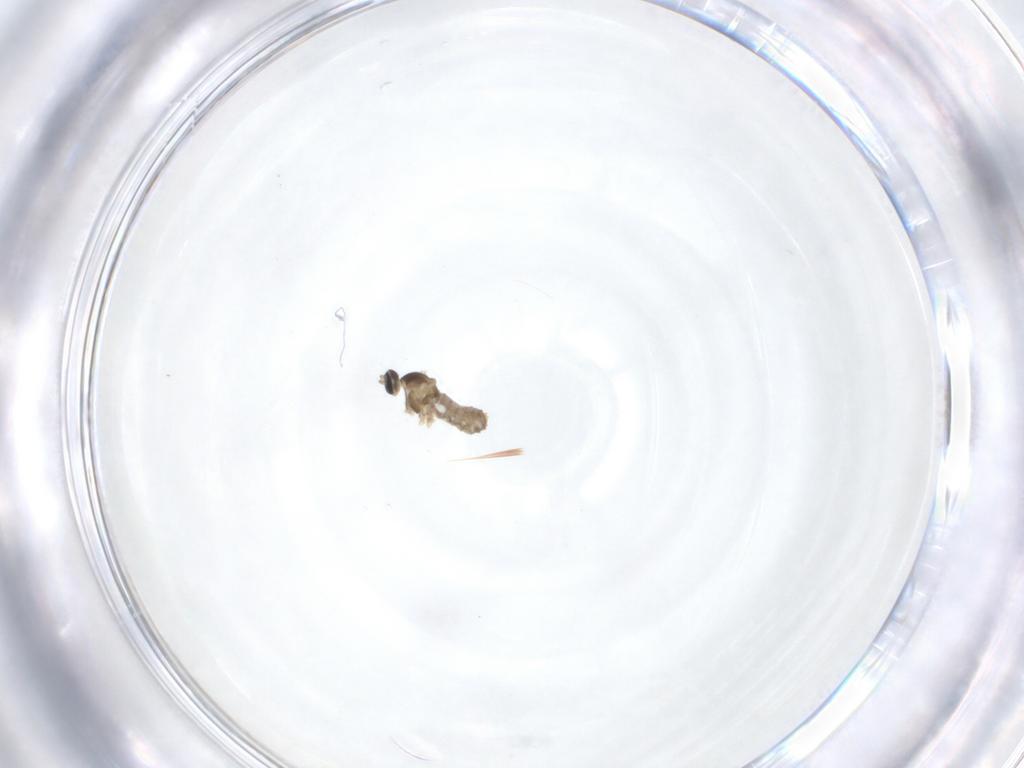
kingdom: Animalia
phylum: Arthropoda
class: Insecta
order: Diptera
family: Cecidomyiidae
